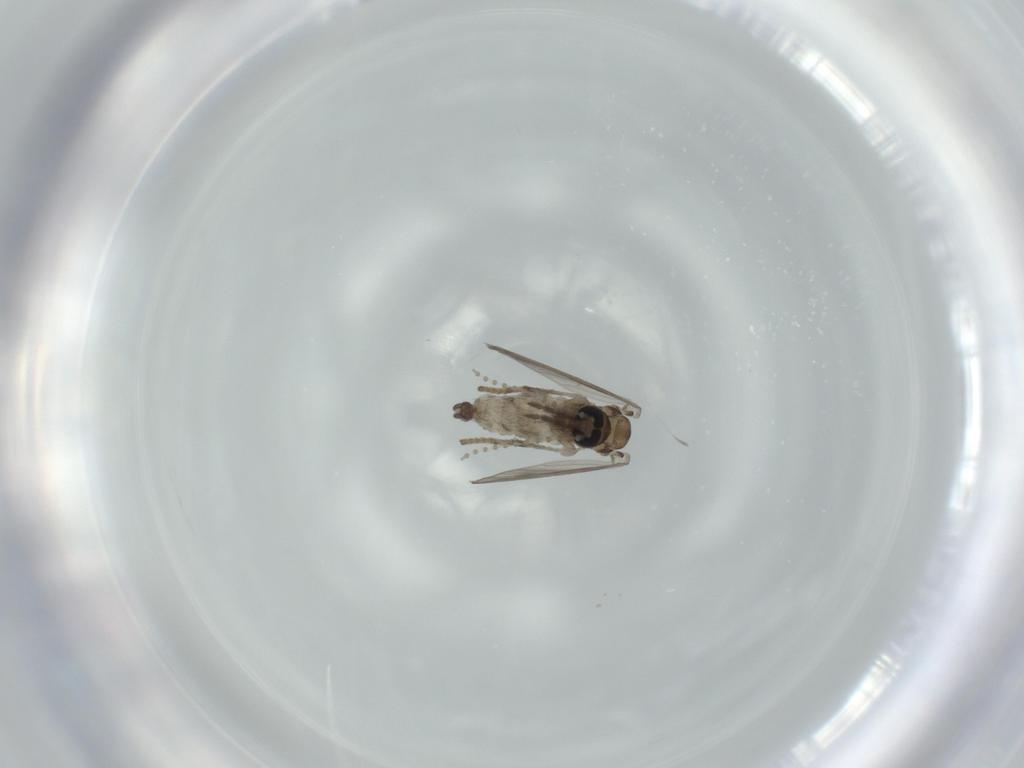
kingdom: Animalia
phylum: Arthropoda
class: Insecta
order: Diptera
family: Psychodidae
